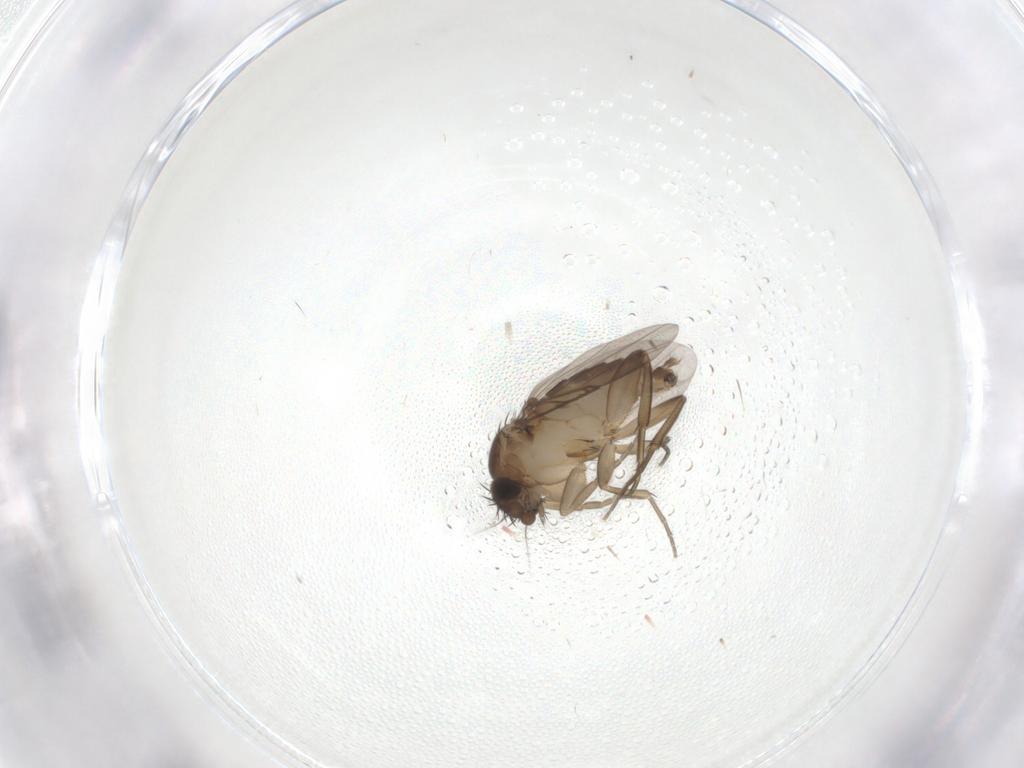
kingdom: Animalia
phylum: Arthropoda
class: Insecta
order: Diptera
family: Phoridae
